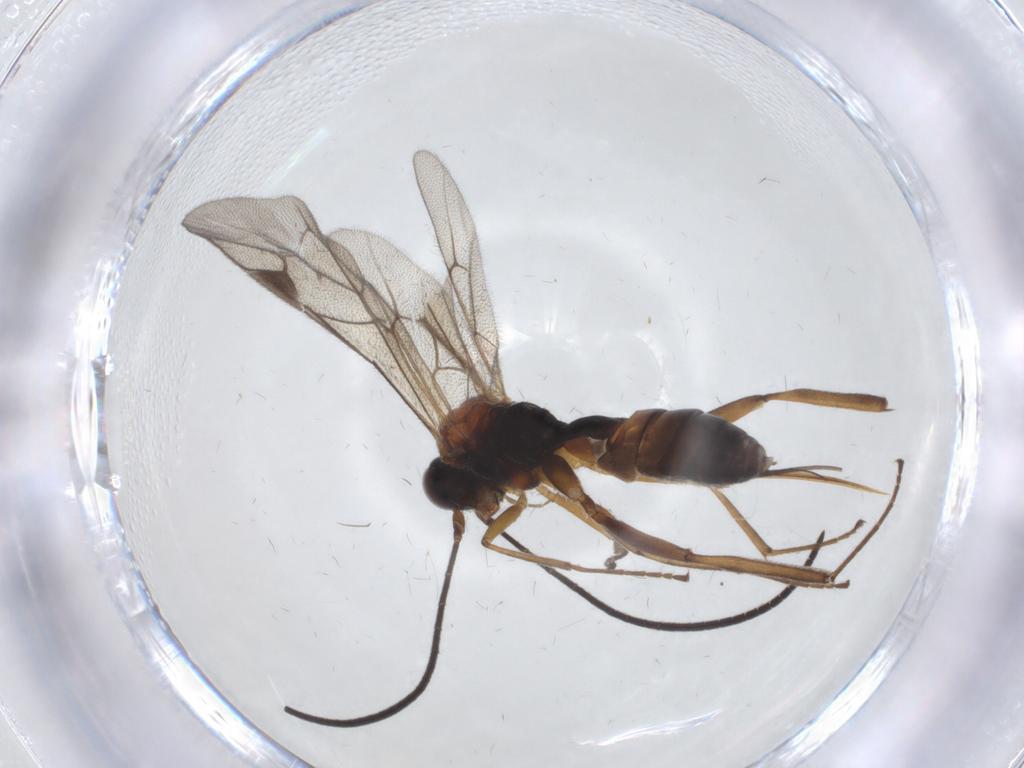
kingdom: Animalia
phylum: Arthropoda
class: Insecta
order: Hymenoptera
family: Ichneumonidae
